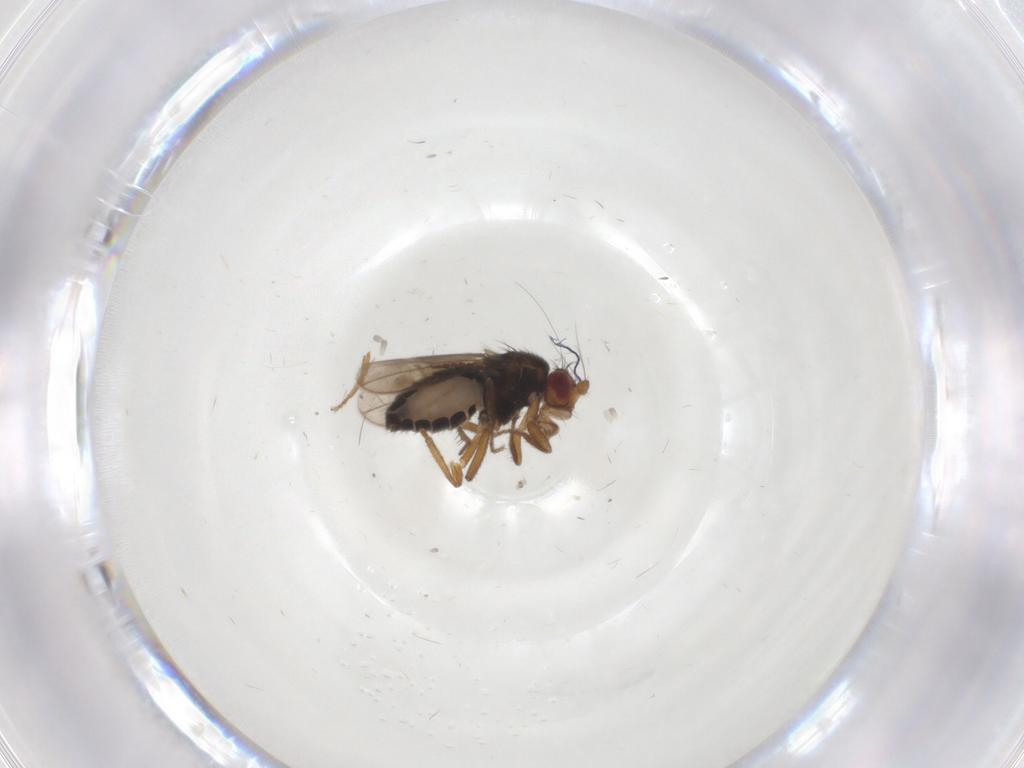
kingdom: Animalia
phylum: Arthropoda
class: Insecta
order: Diptera
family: Sphaeroceridae
